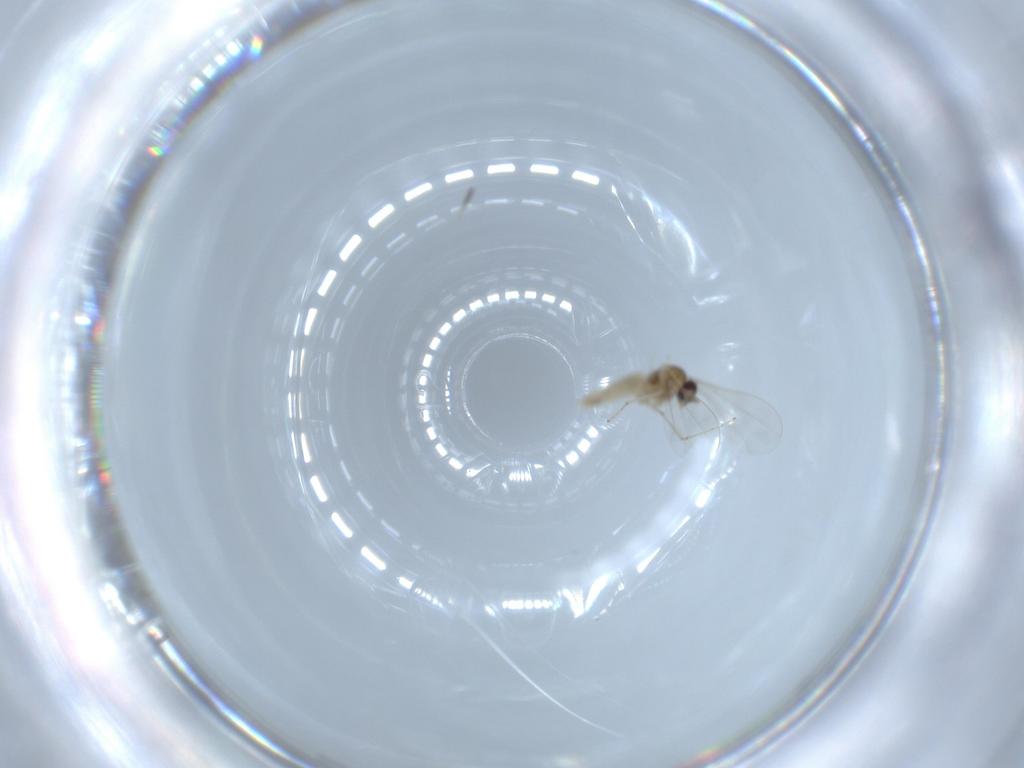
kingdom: Animalia
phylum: Arthropoda
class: Insecta
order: Diptera
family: Cecidomyiidae
